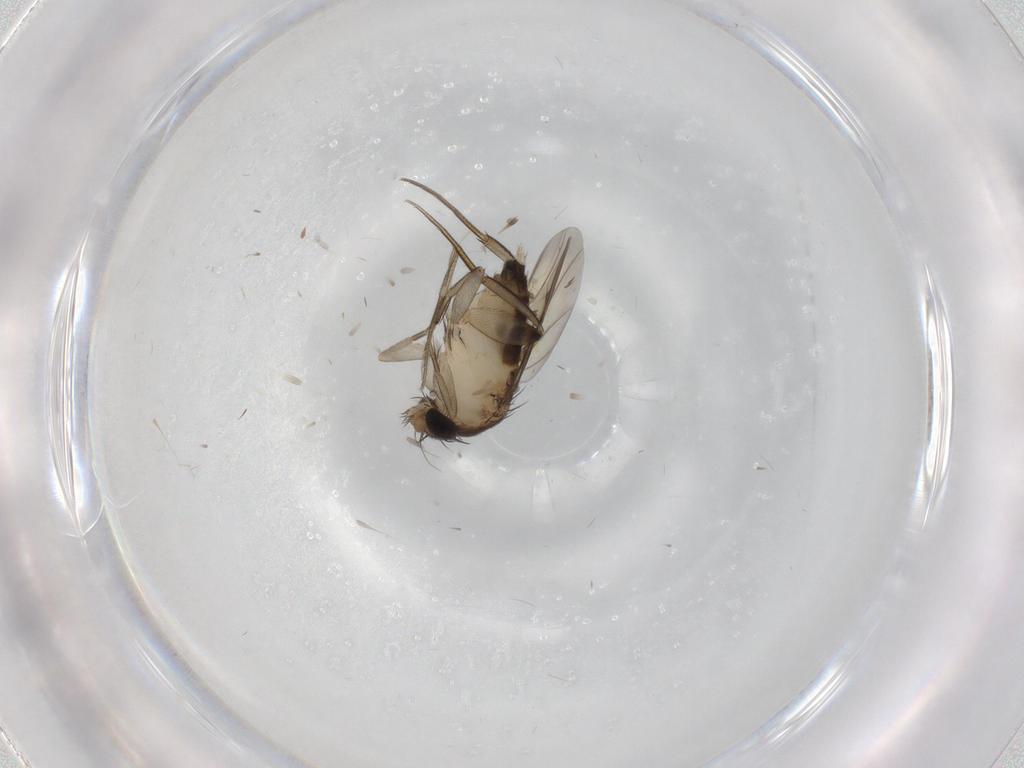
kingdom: Animalia
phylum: Arthropoda
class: Insecta
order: Diptera
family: Phoridae
